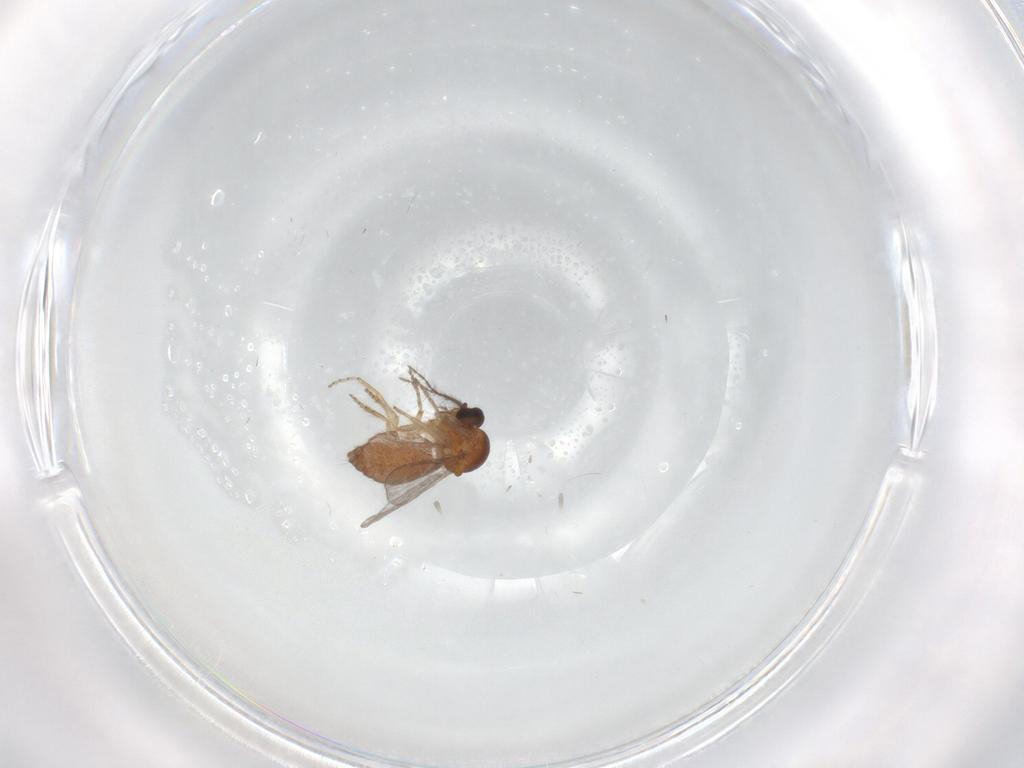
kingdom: Animalia
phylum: Arthropoda
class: Insecta
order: Diptera
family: Ceratopogonidae
